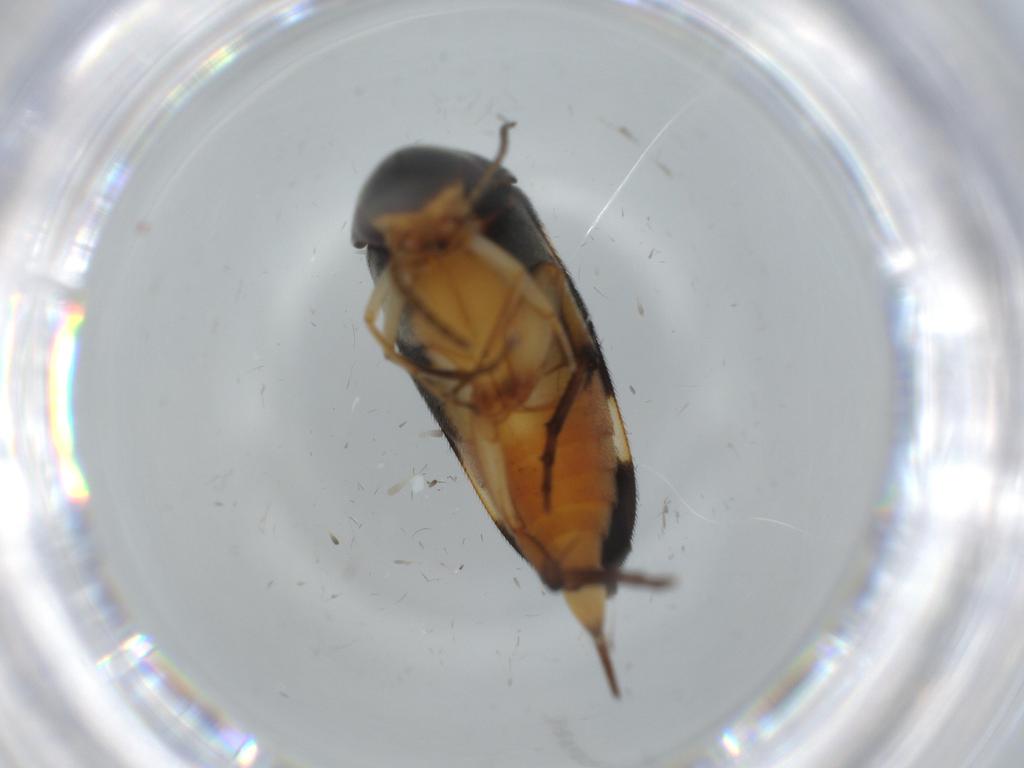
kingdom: Animalia
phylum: Arthropoda
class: Insecta
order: Coleoptera
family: Mordellidae
